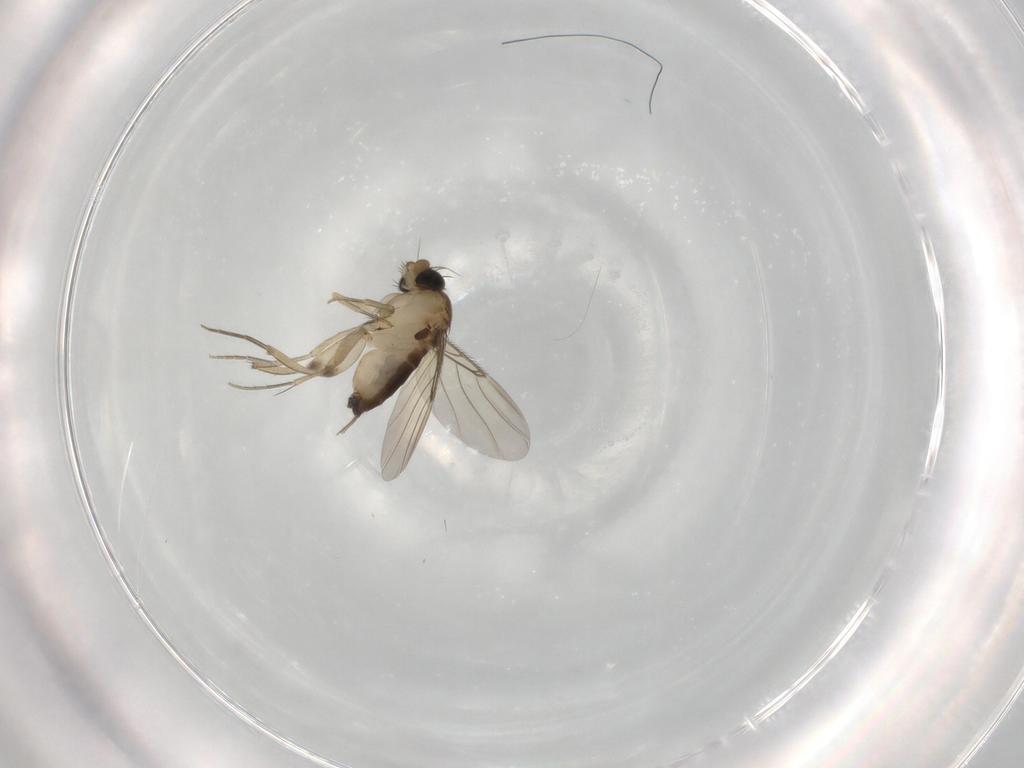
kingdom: Animalia
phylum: Arthropoda
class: Insecta
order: Diptera
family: Phoridae
